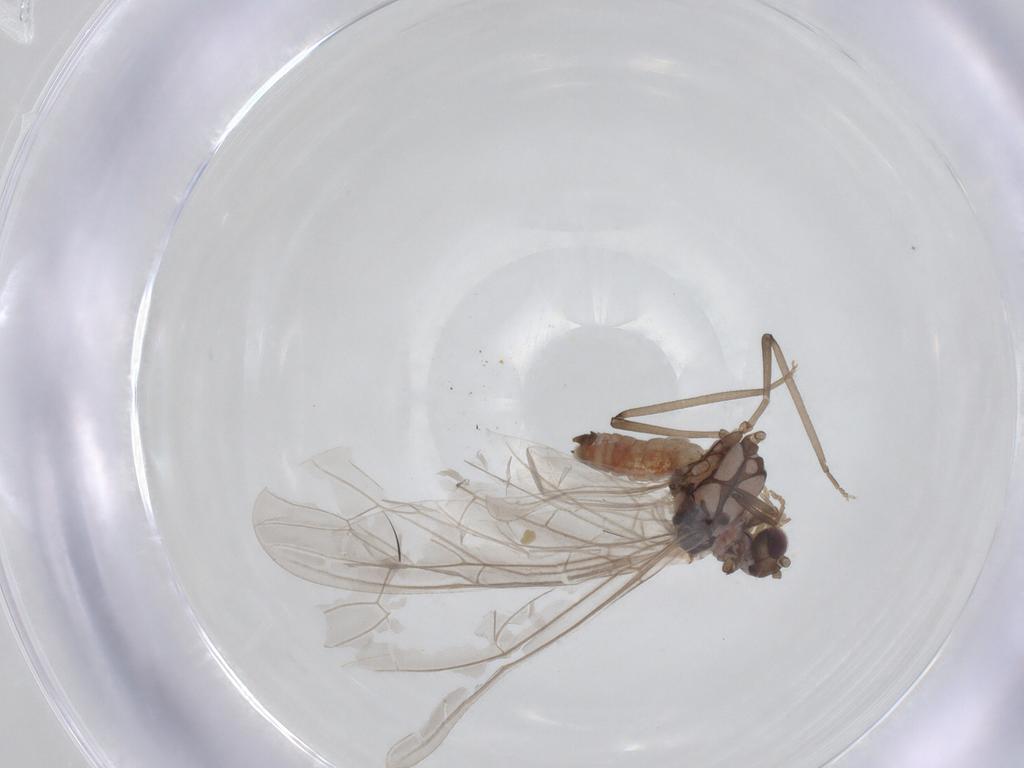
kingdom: Animalia
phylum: Arthropoda
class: Insecta
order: Neuroptera
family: Coniopterygidae
